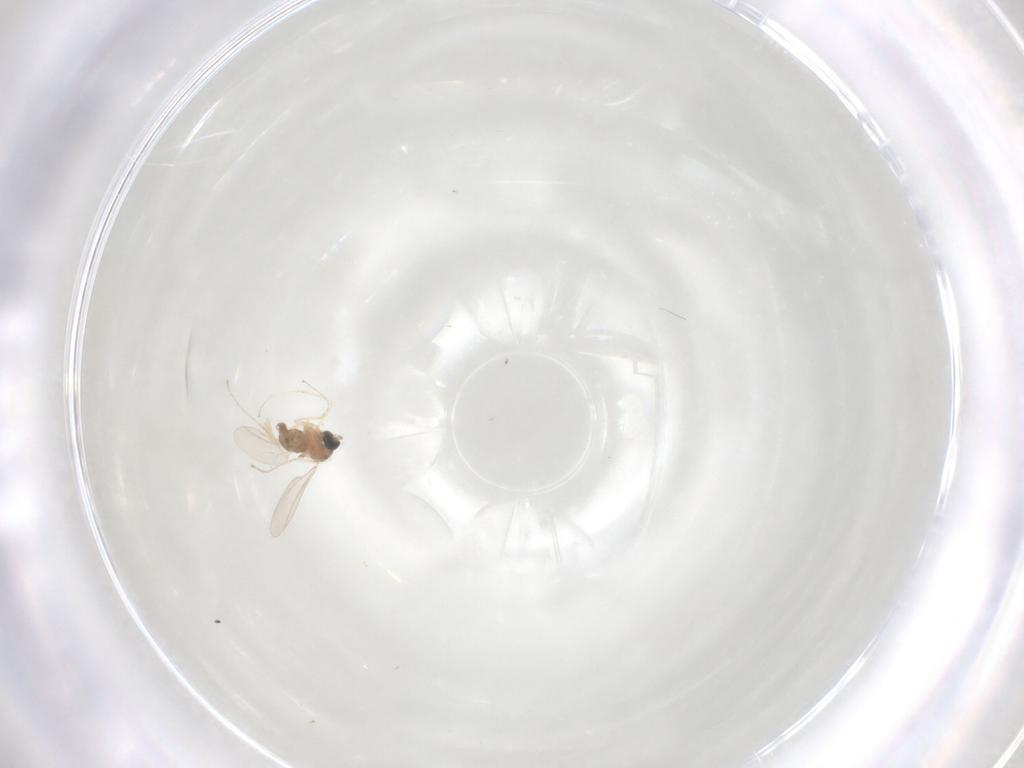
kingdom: Animalia
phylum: Arthropoda
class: Insecta
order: Diptera
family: Cecidomyiidae
